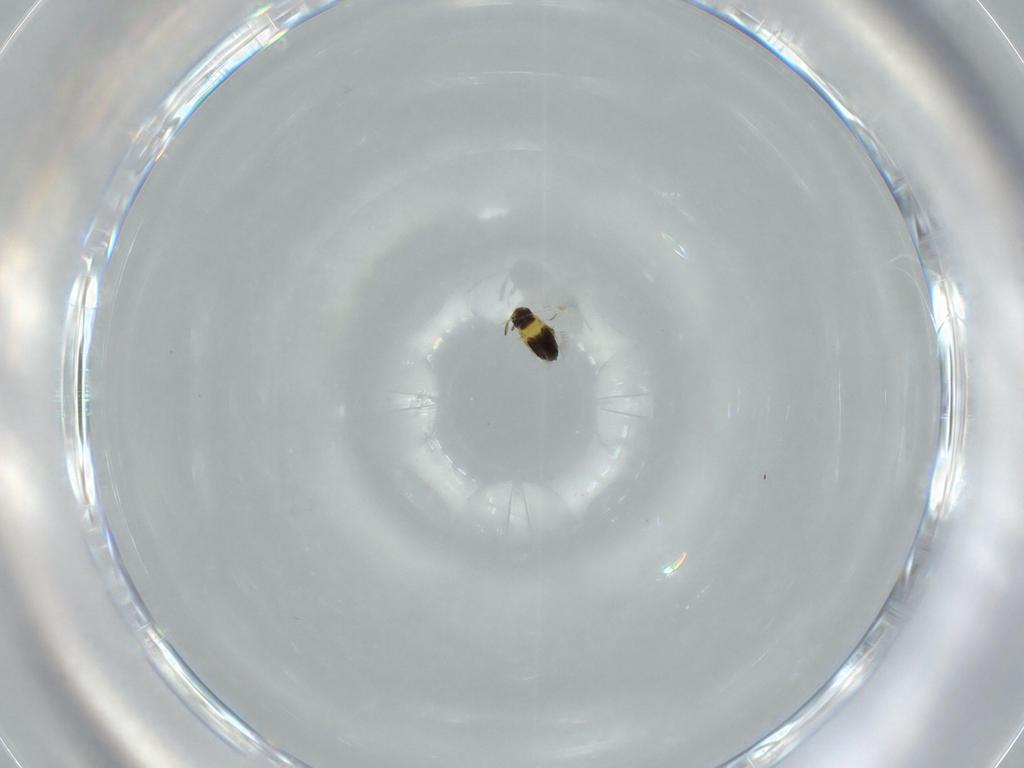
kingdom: Animalia
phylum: Arthropoda
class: Insecta
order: Hymenoptera
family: Signiphoridae
